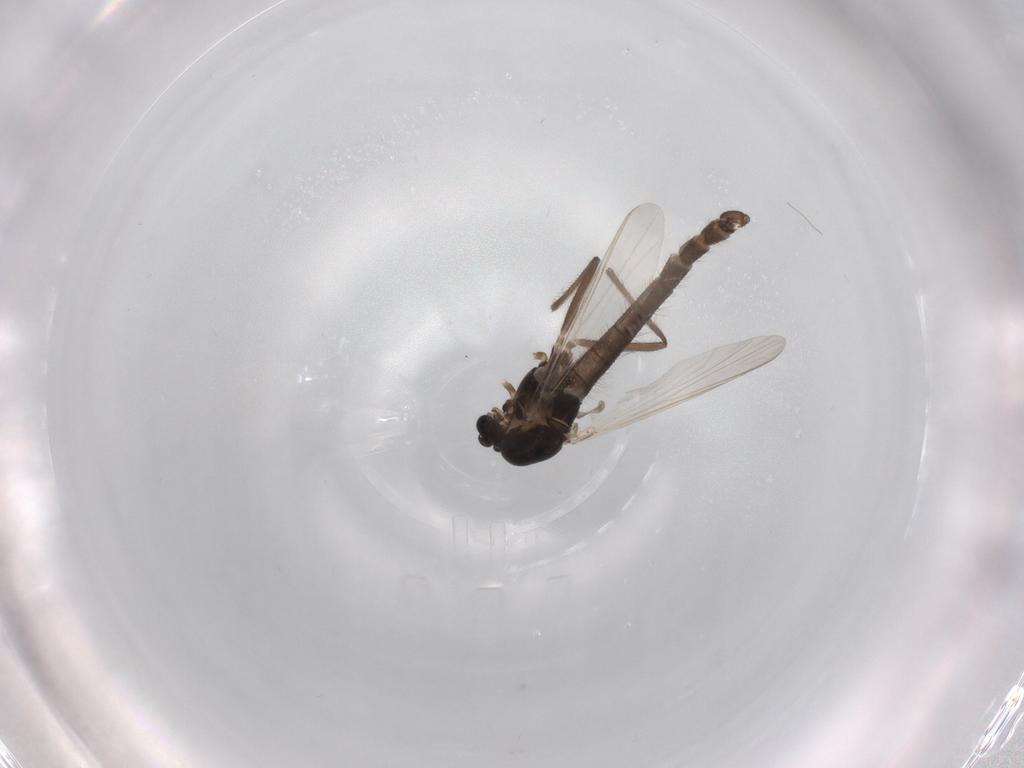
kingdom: Animalia
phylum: Arthropoda
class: Insecta
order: Diptera
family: Chironomidae
